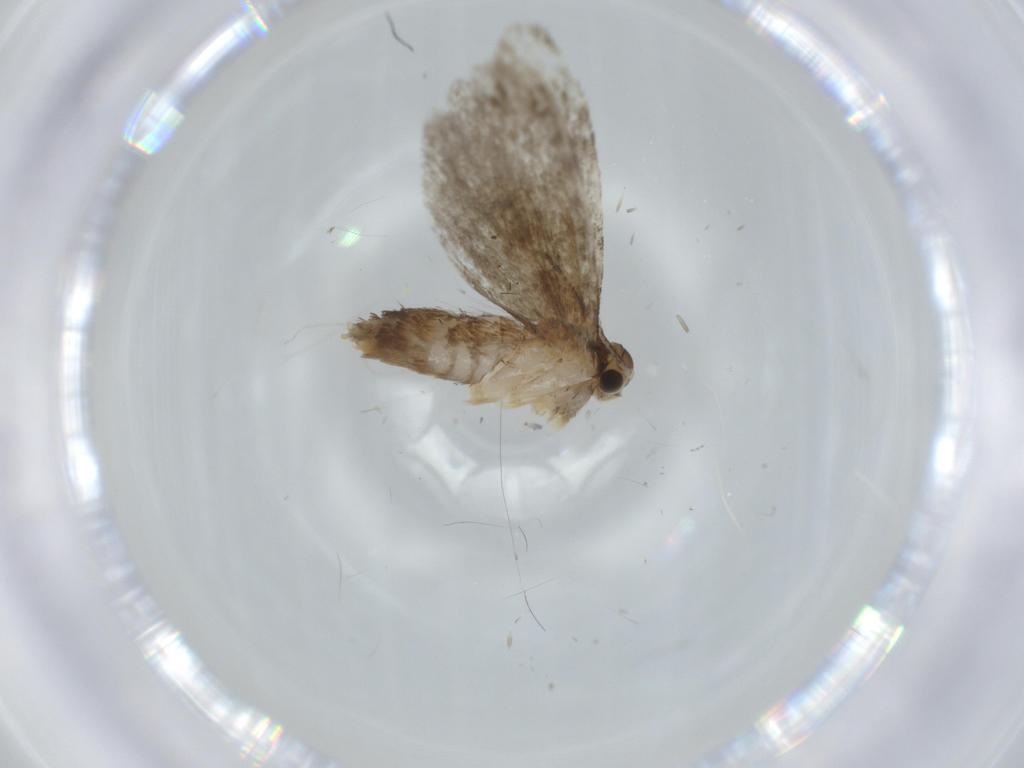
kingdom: Animalia
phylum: Arthropoda
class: Insecta
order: Lepidoptera
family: Tineidae
